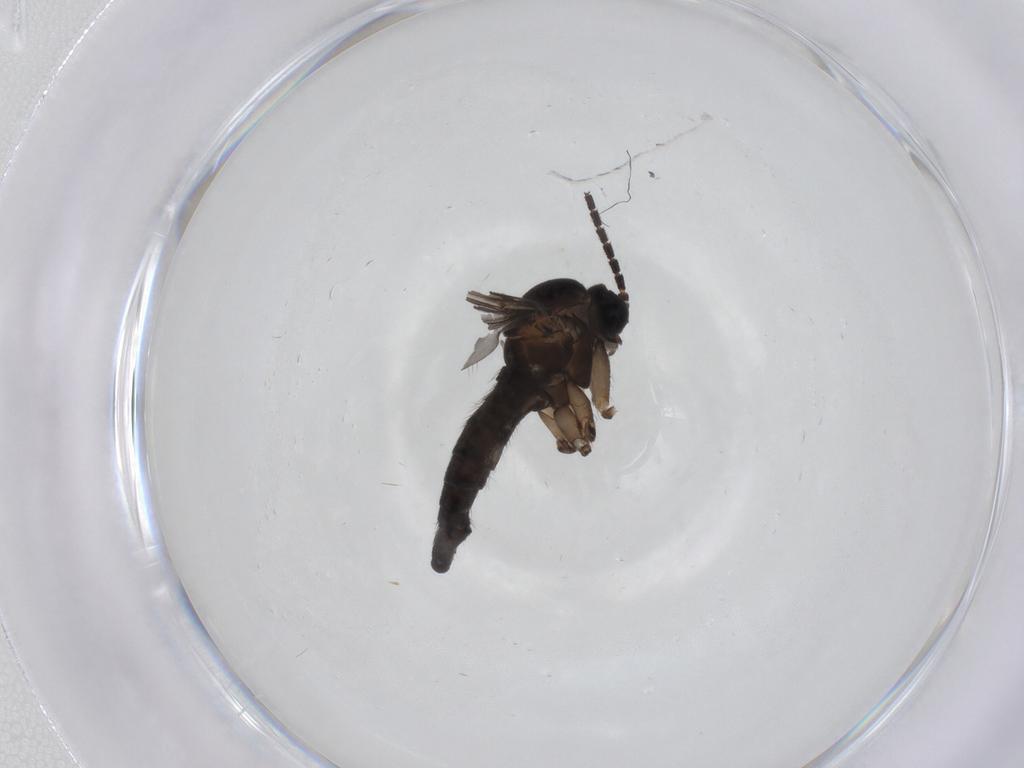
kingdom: Animalia
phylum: Arthropoda
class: Insecta
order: Diptera
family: Sciaridae
